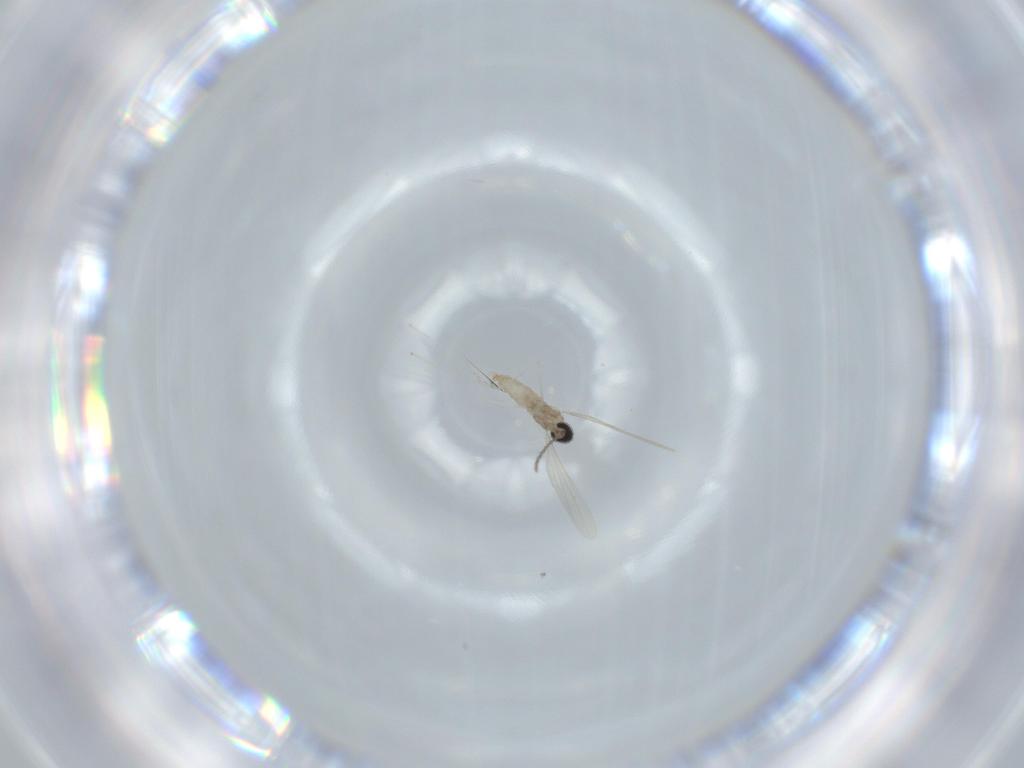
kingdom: Animalia
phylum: Arthropoda
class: Insecta
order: Diptera
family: Cecidomyiidae
